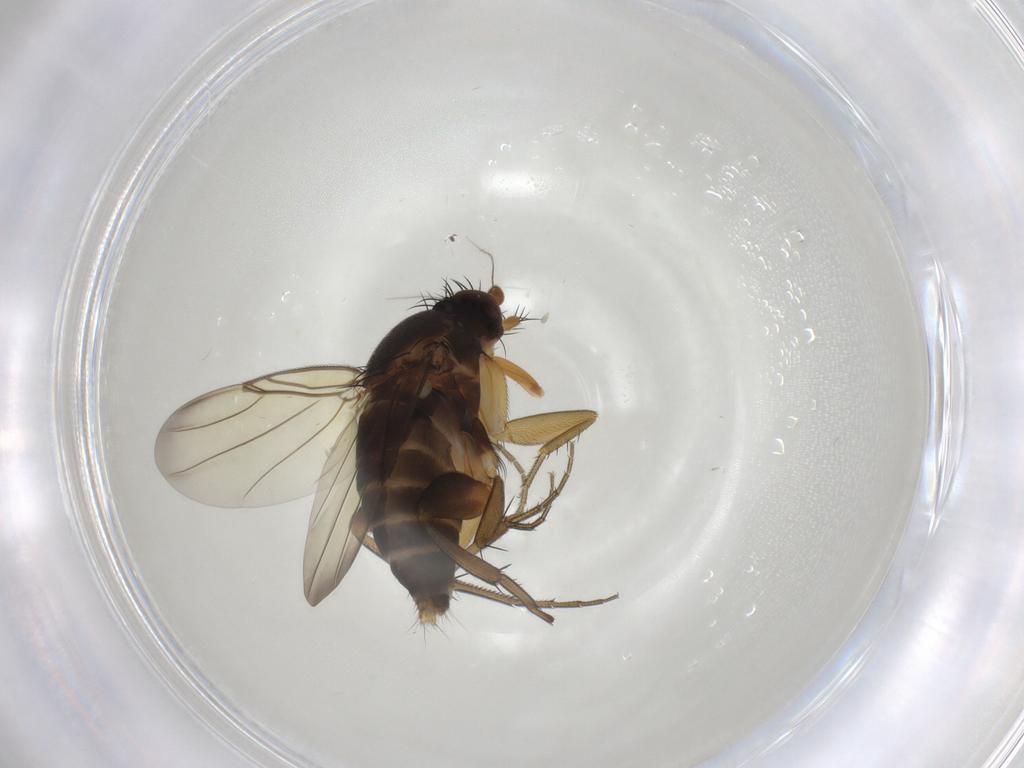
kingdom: Animalia
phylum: Arthropoda
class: Insecta
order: Diptera
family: Phoridae
